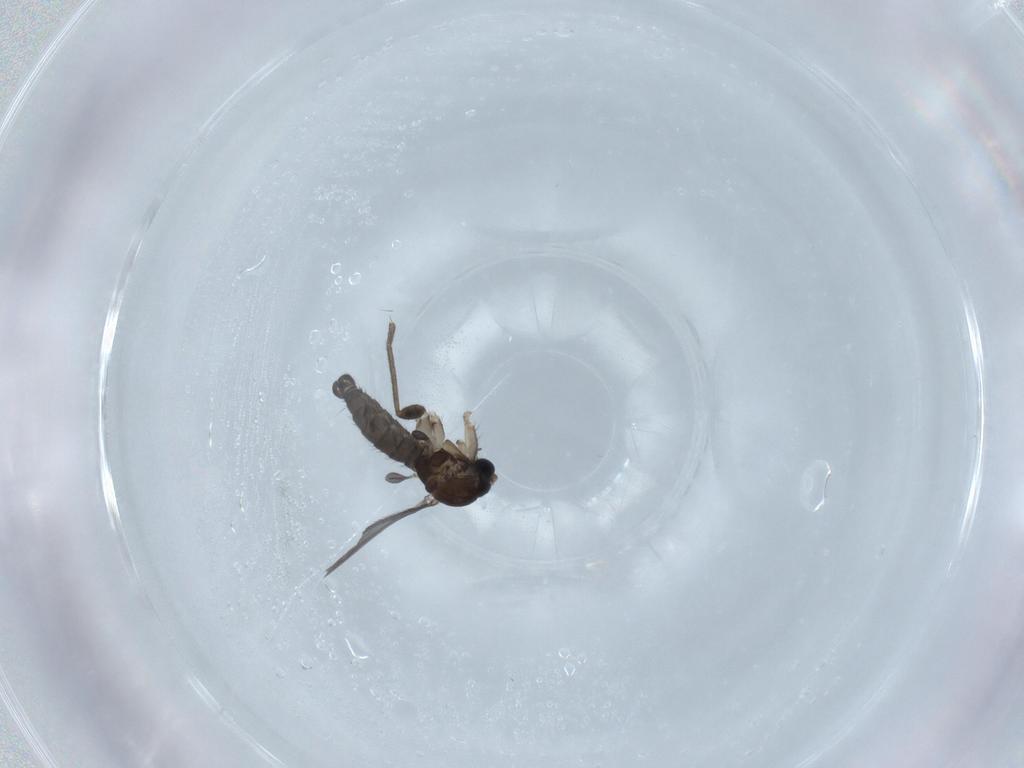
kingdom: Animalia
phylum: Arthropoda
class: Insecta
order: Diptera
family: Sciaridae
